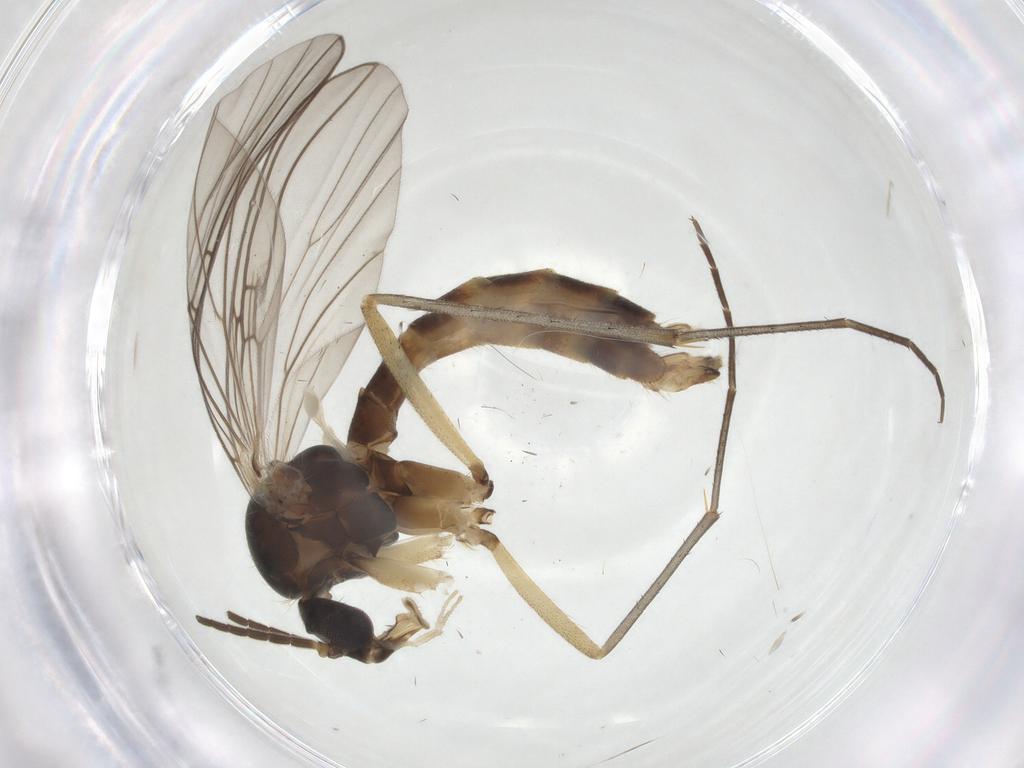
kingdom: Animalia
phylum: Arthropoda
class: Insecta
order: Diptera
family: Mycetophilidae
